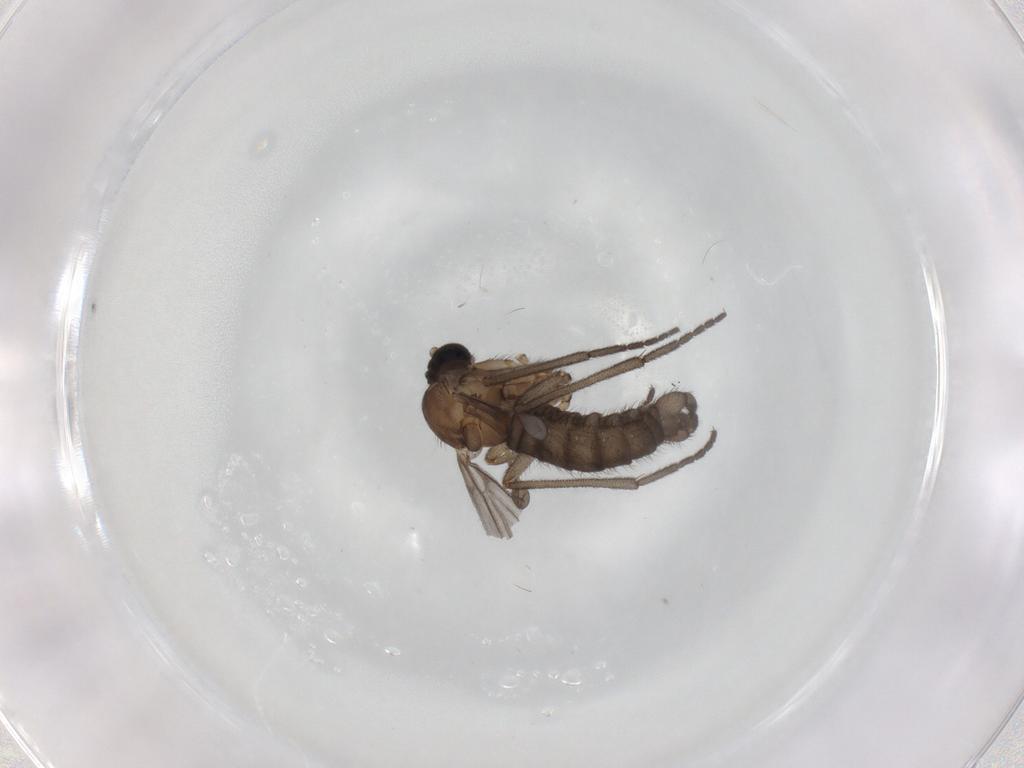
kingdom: Animalia
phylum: Arthropoda
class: Insecta
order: Diptera
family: Sciaridae
